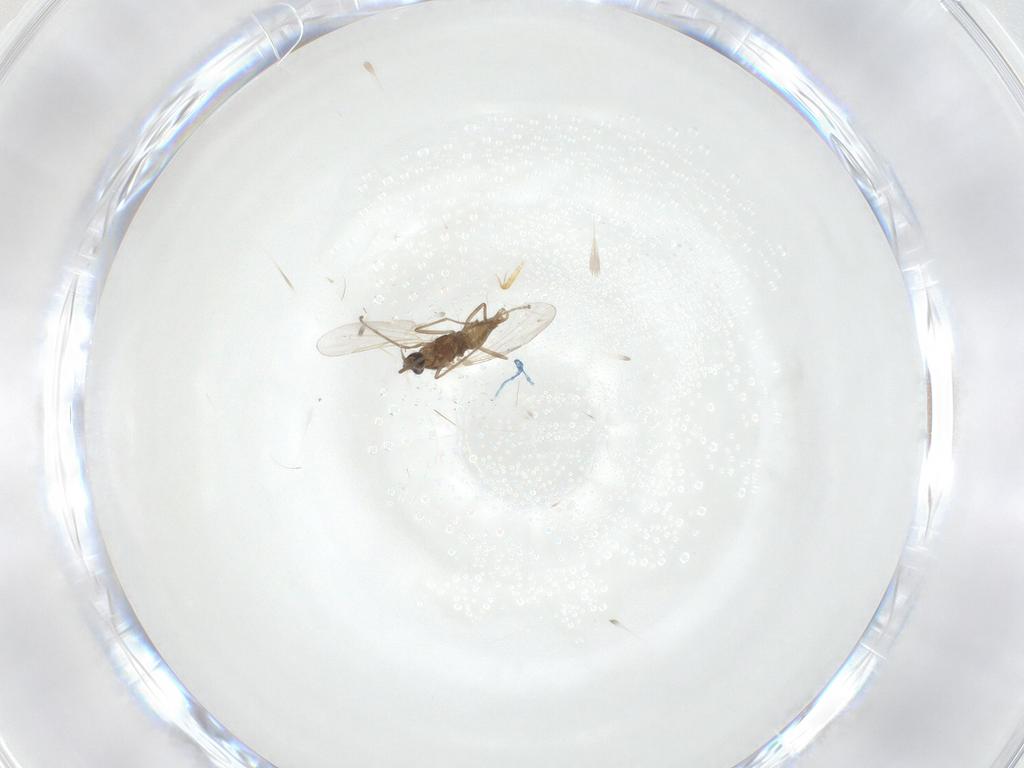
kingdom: Animalia
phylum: Arthropoda
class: Insecta
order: Diptera
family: Cecidomyiidae
